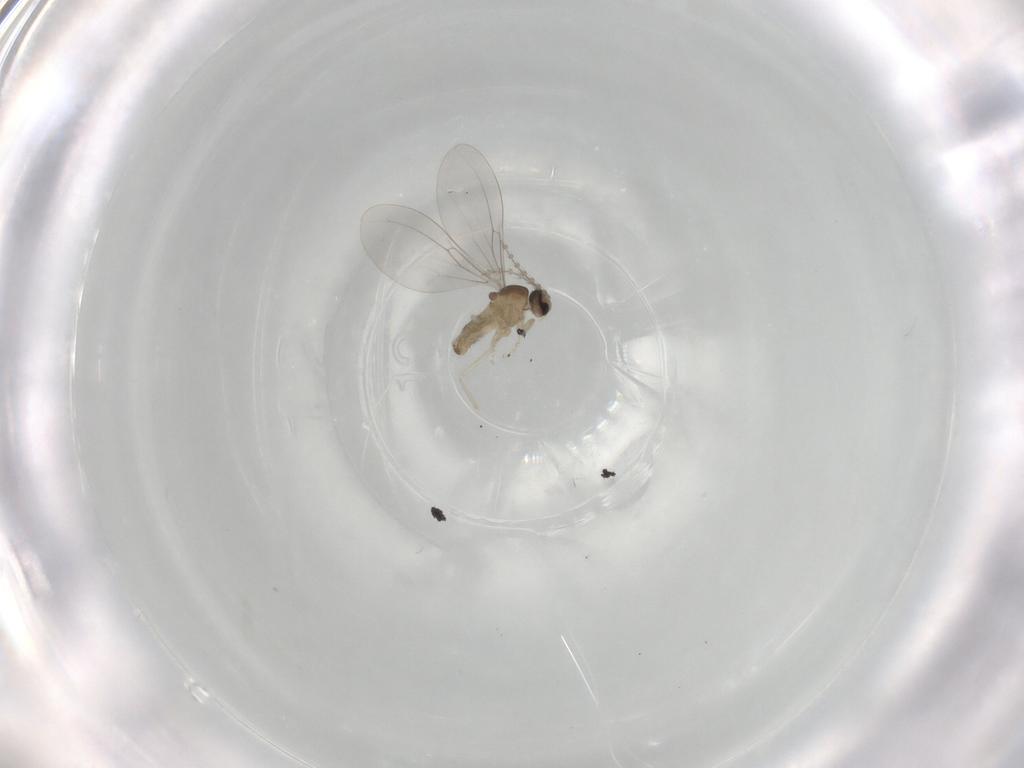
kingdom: Animalia
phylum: Arthropoda
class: Insecta
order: Diptera
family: Cecidomyiidae
